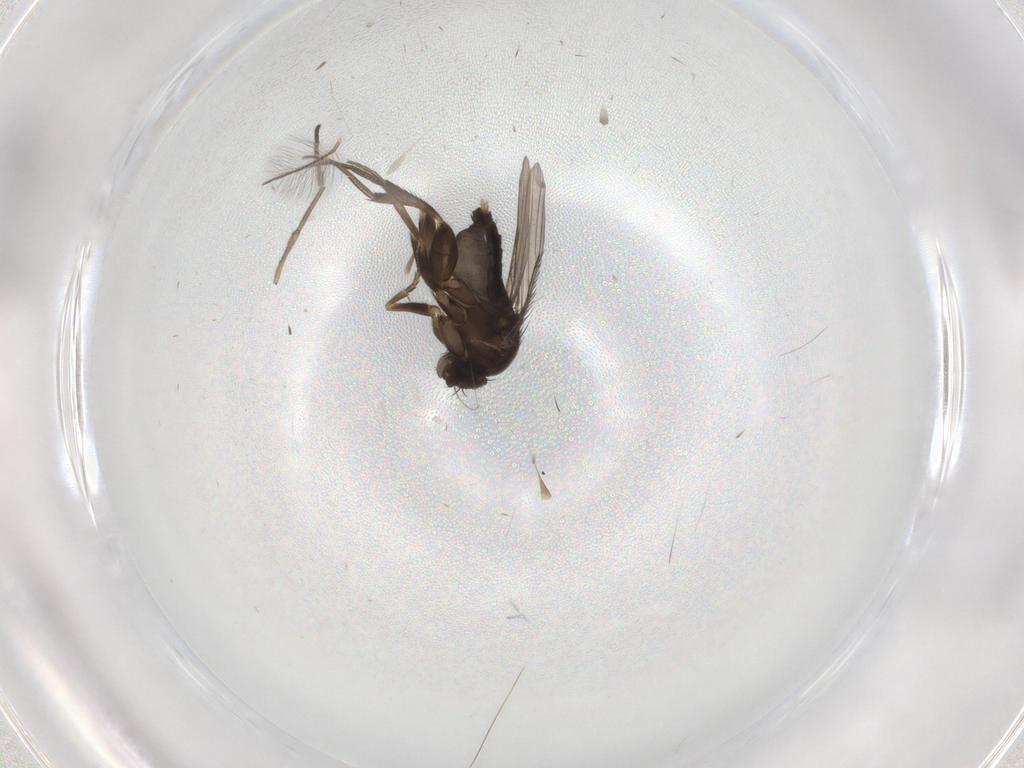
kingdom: Animalia
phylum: Arthropoda
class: Insecta
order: Diptera
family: Phoridae
